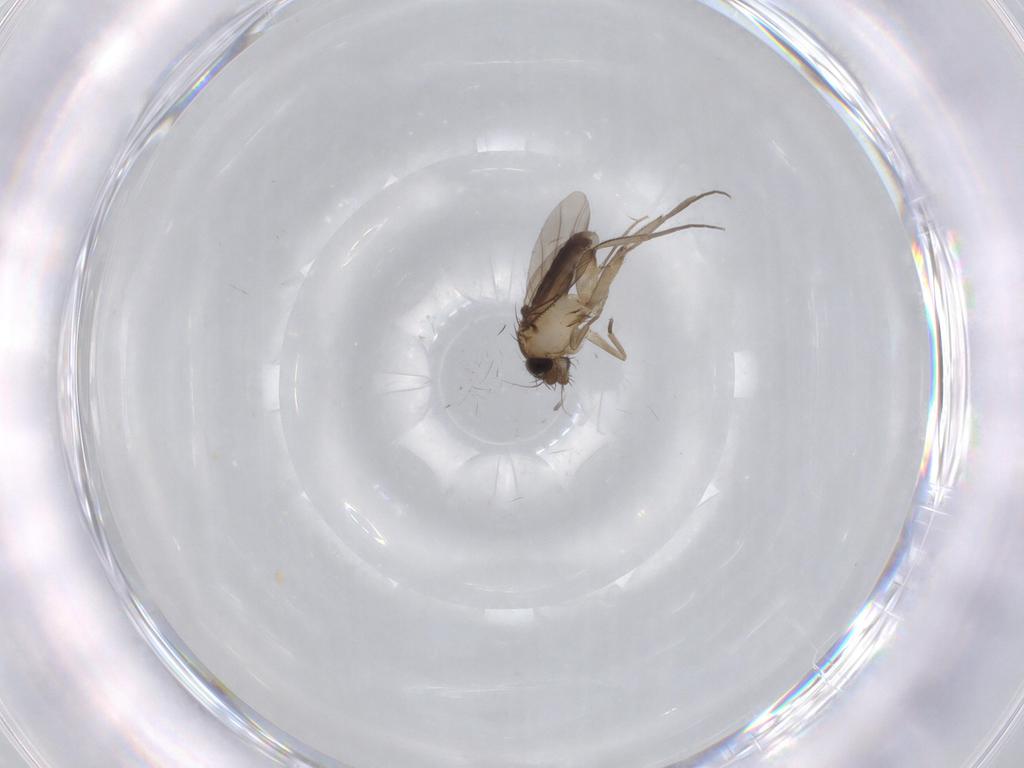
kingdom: Animalia
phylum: Arthropoda
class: Insecta
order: Diptera
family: Phoridae
